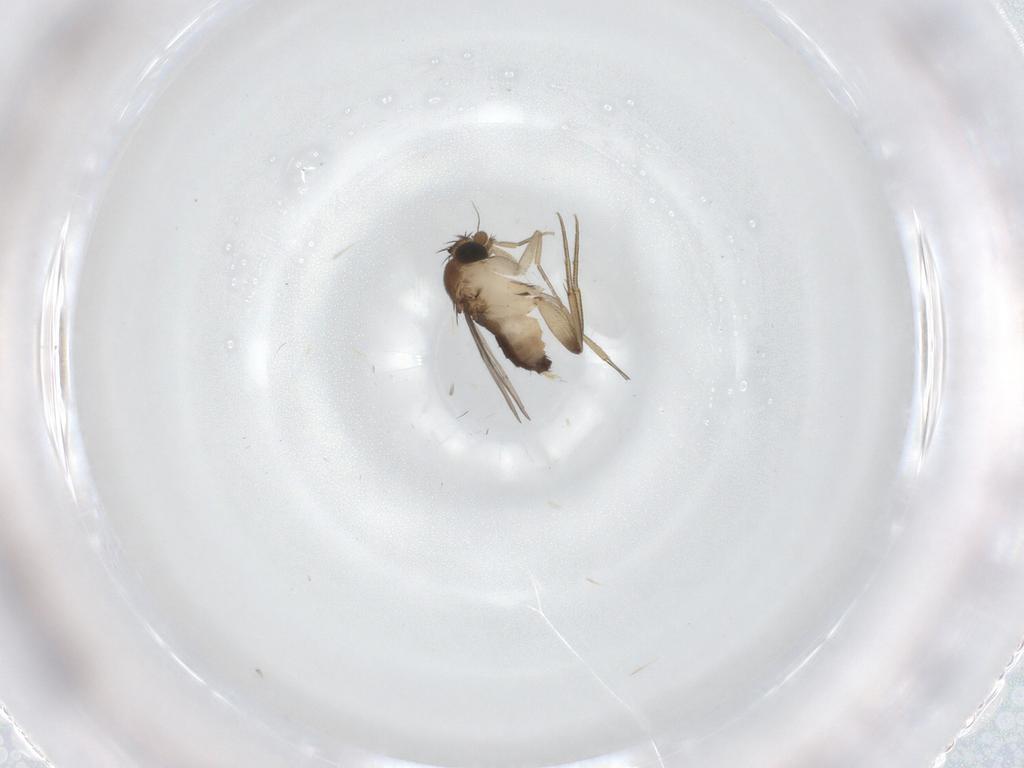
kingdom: Animalia
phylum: Arthropoda
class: Insecta
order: Diptera
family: Phoridae
